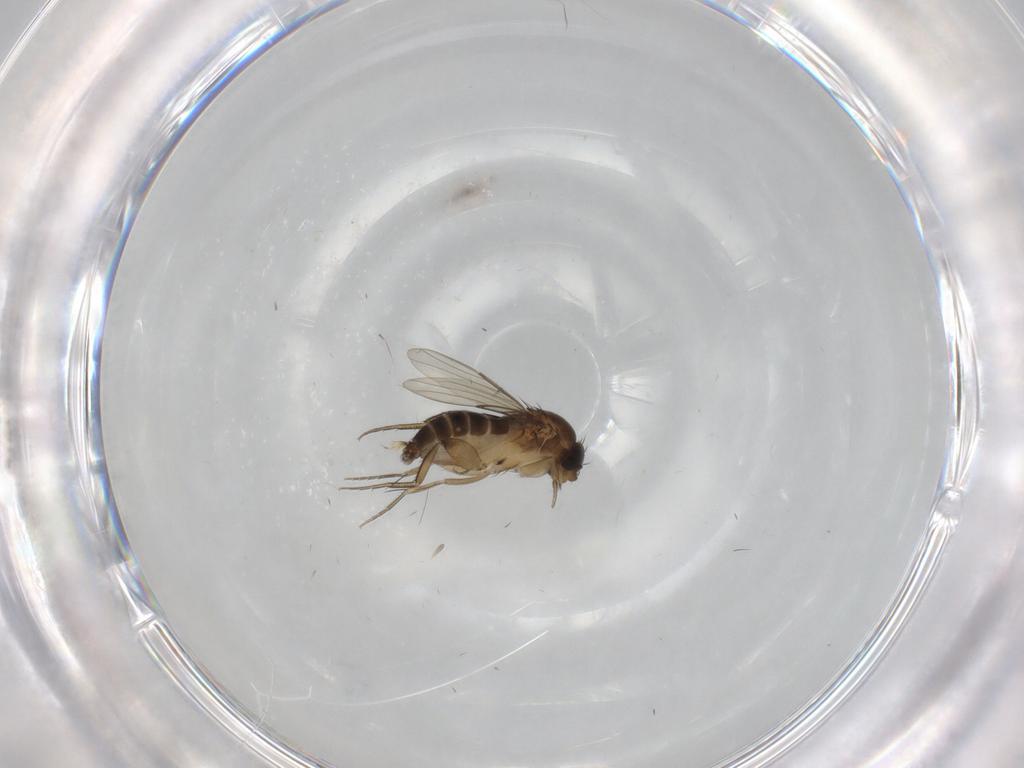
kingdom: Animalia
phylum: Arthropoda
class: Insecta
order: Diptera
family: Phoridae
